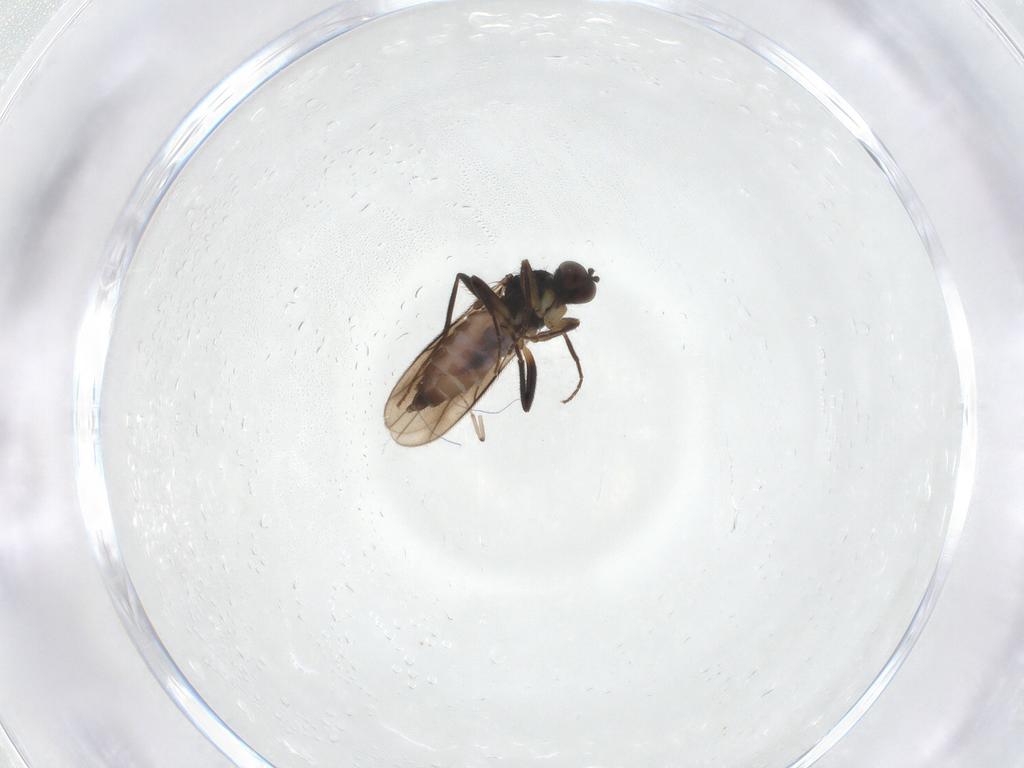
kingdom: Animalia
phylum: Arthropoda
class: Insecta
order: Diptera
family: Hybotidae
